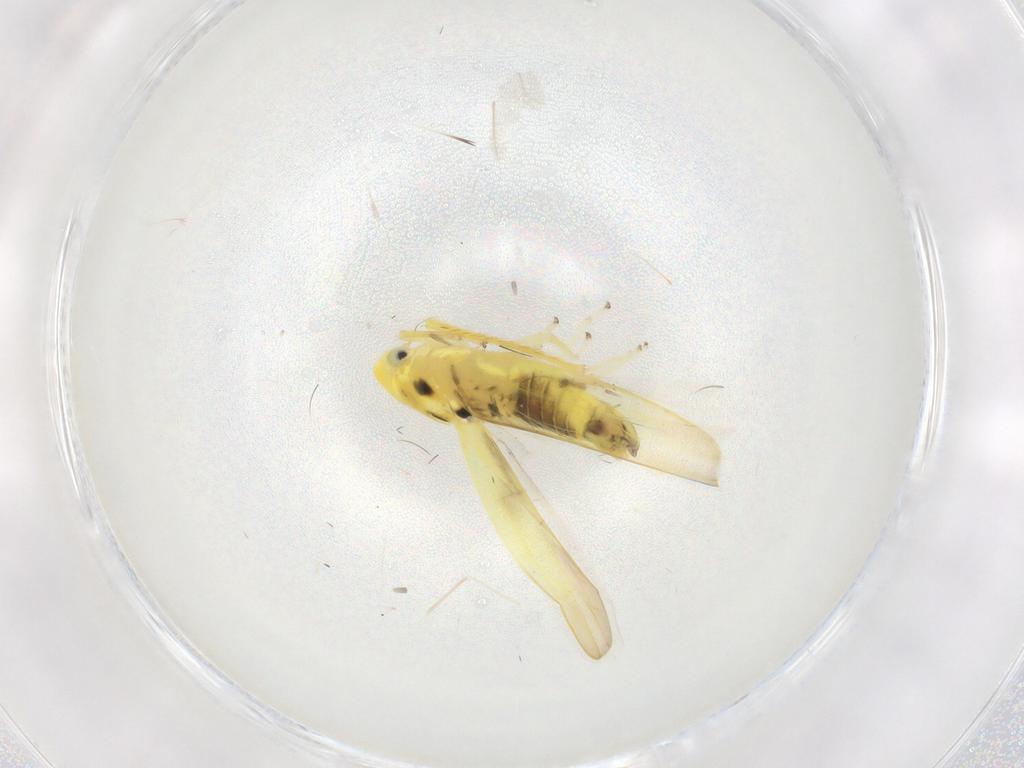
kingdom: Animalia
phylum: Arthropoda
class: Insecta
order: Hemiptera
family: Cicadellidae
